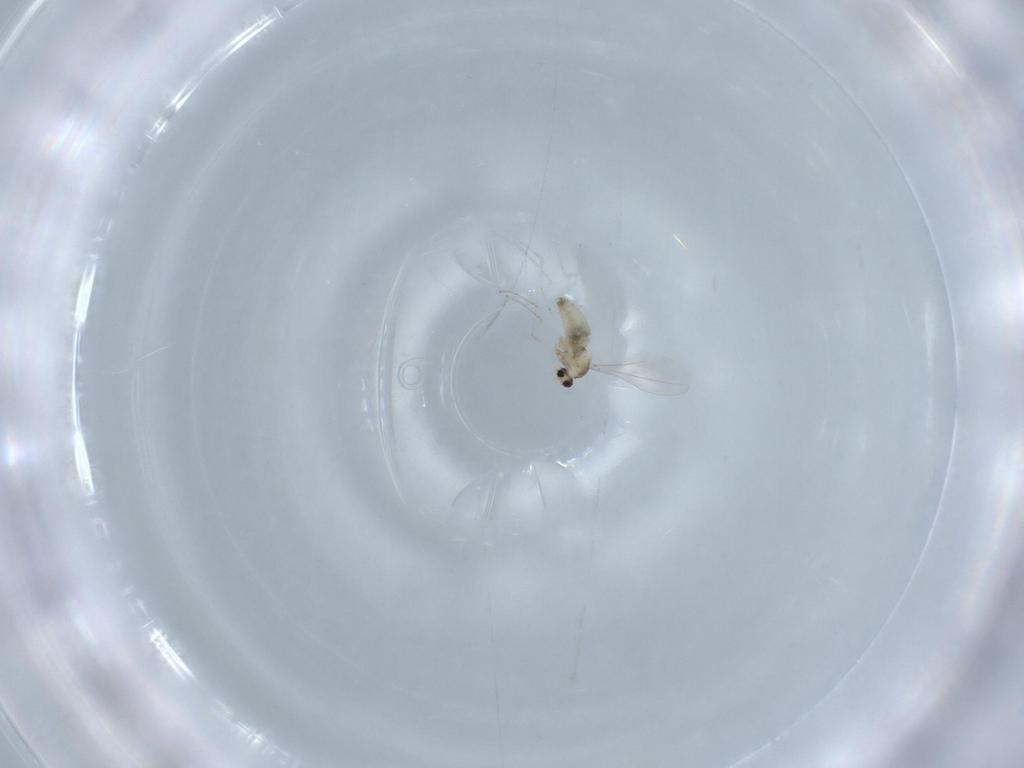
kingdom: Animalia
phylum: Arthropoda
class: Insecta
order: Diptera
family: Cecidomyiidae
